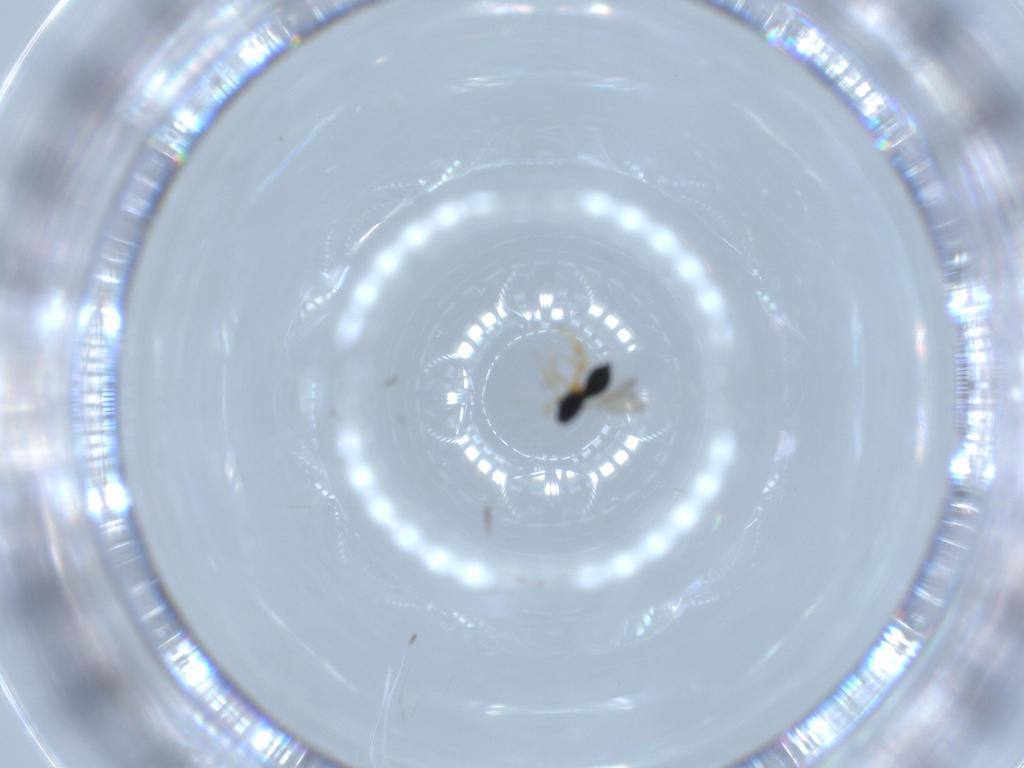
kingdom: Animalia
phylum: Arthropoda
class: Insecta
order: Hymenoptera
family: Scelionidae
